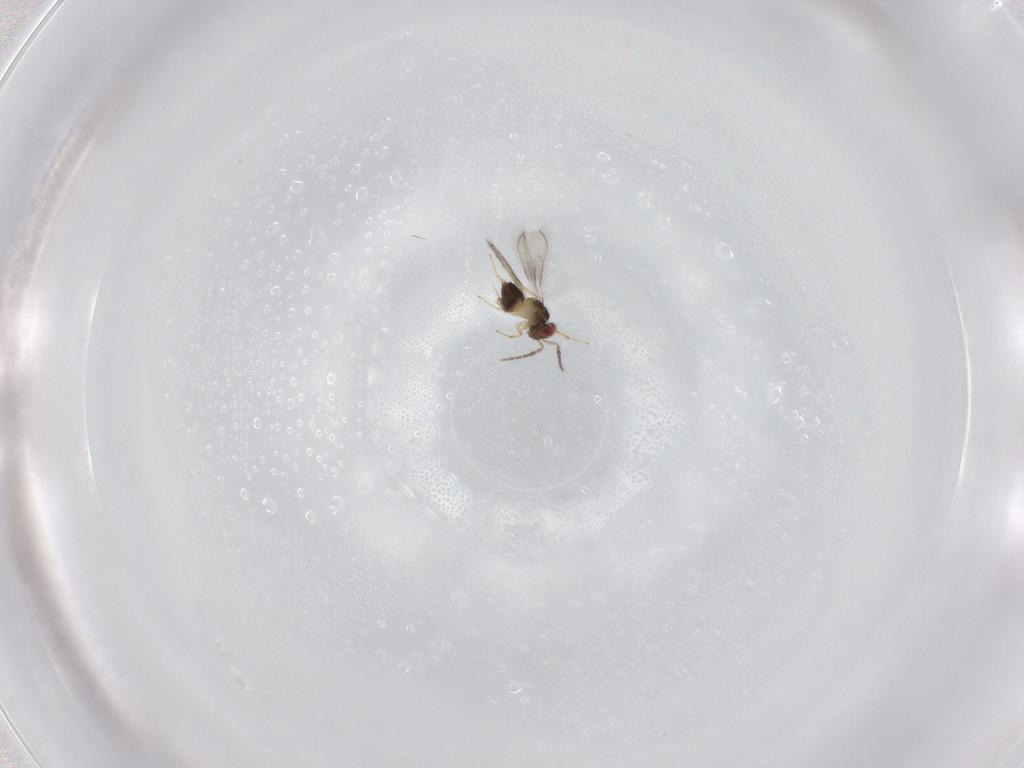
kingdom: Animalia
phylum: Arthropoda
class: Insecta
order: Hymenoptera
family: Eulophidae
